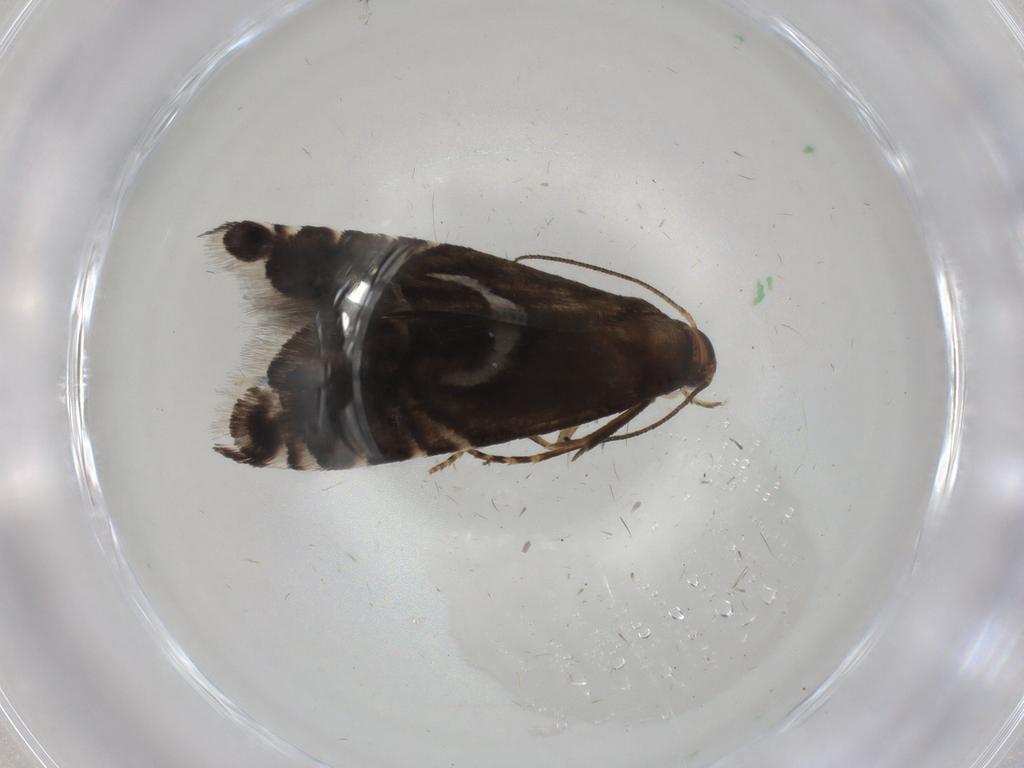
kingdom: Animalia
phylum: Arthropoda
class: Insecta
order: Lepidoptera
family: Glyphipterigidae
